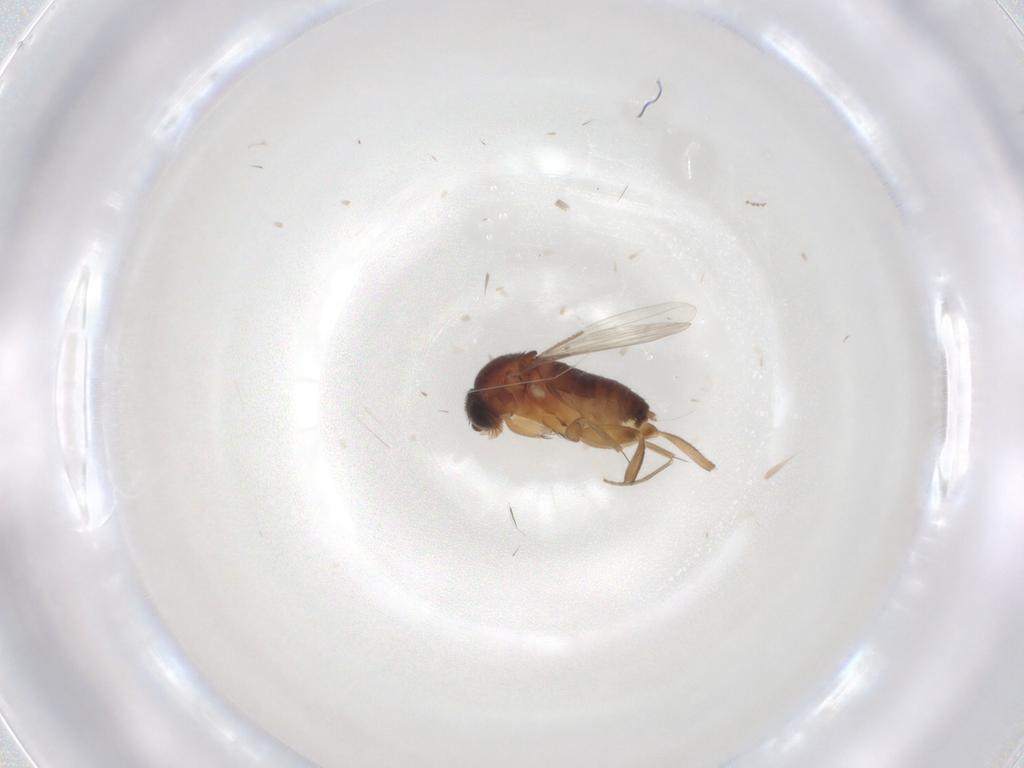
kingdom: Animalia
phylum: Arthropoda
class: Insecta
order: Diptera
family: Phoridae
